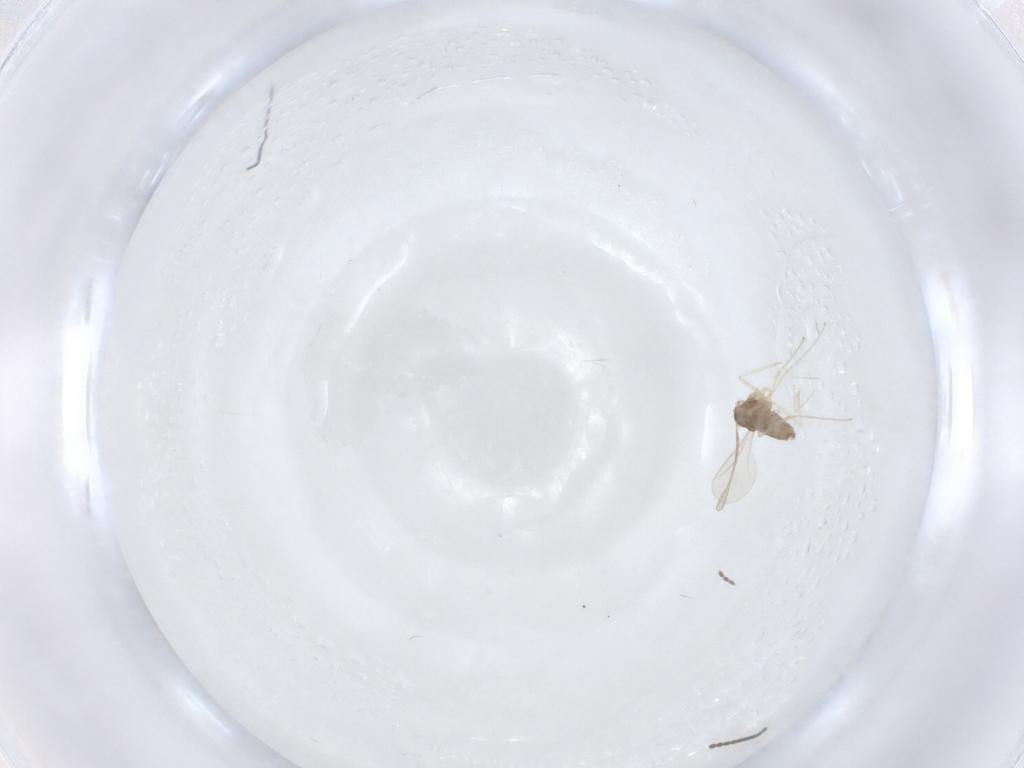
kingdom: Animalia
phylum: Arthropoda
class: Insecta
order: Diptera
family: Cecidomyiidae
